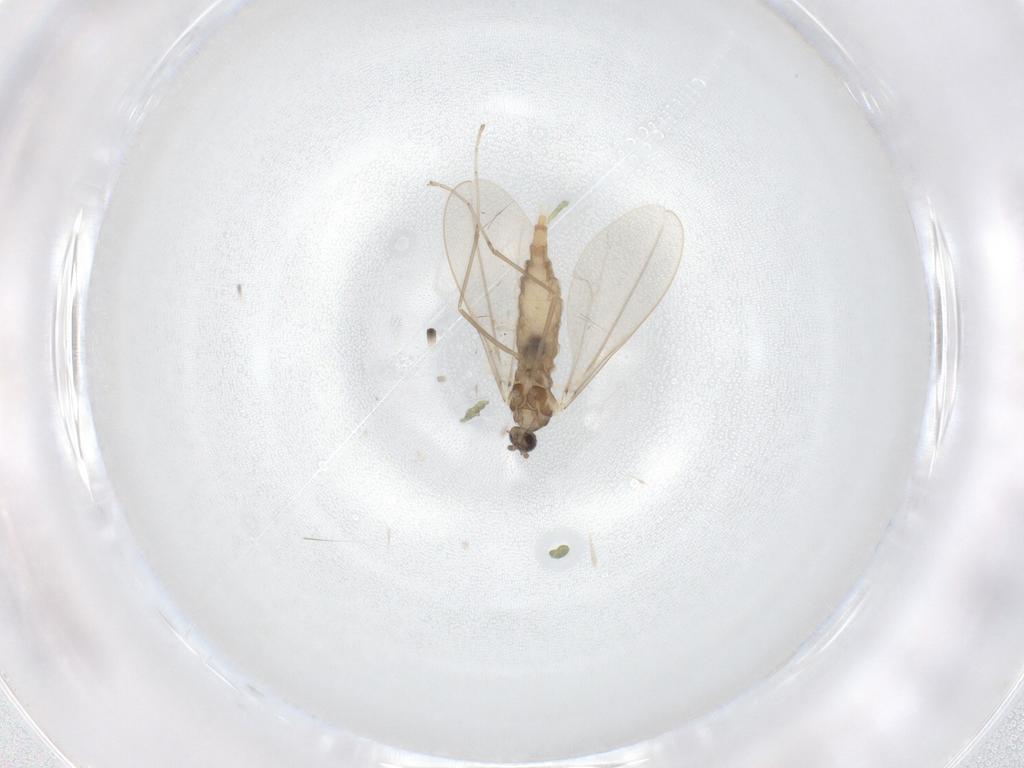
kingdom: Animalia
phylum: Arthropoda
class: Insecta
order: Diptera
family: Cecidomyiidae
